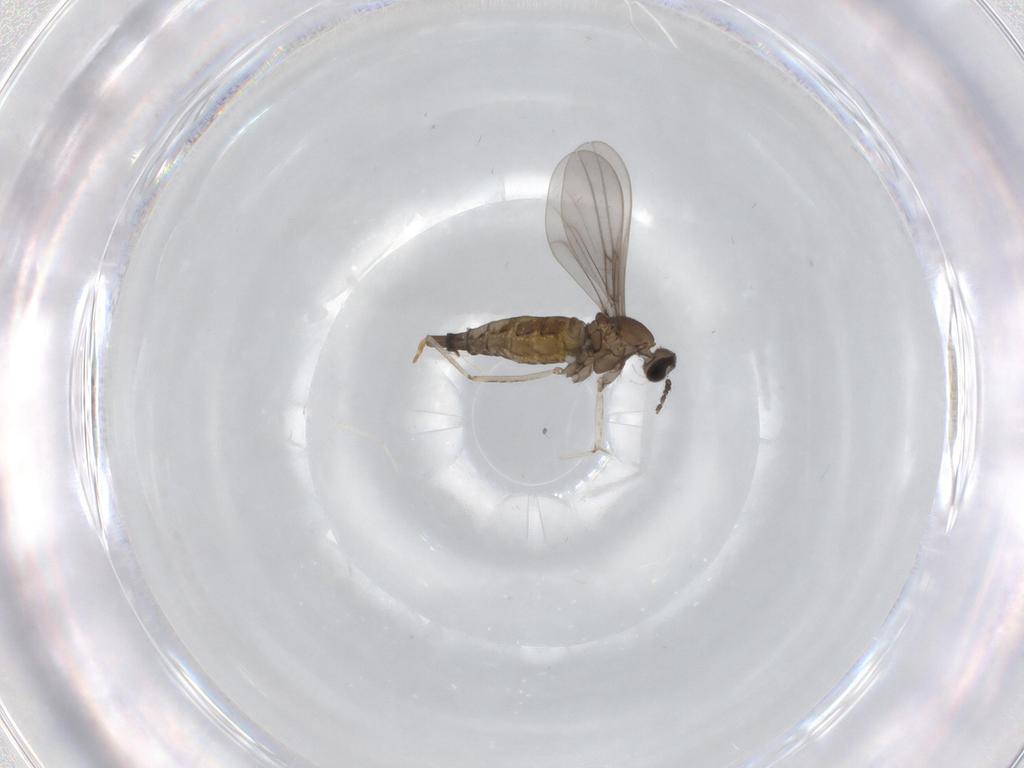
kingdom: Animalia
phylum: Arthropoda
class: Insecta
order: Diptera
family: Cecidomyiidae
